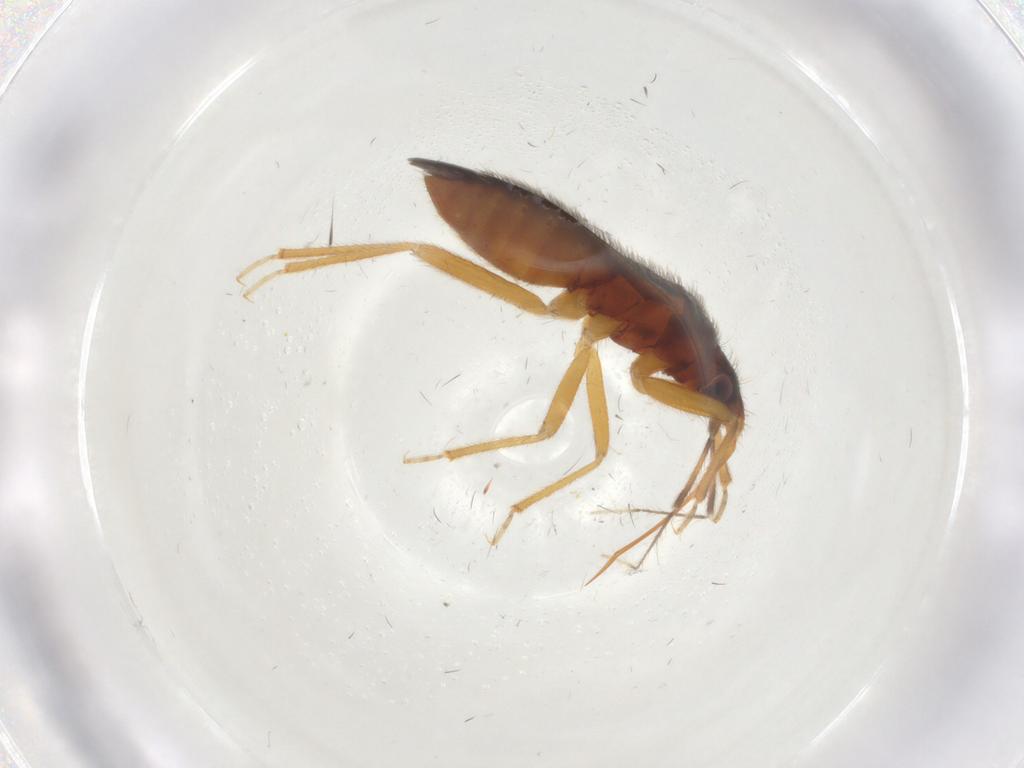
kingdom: Animalia
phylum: Arthropoda
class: Insecta
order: Hemiptera
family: Anthocoridae
